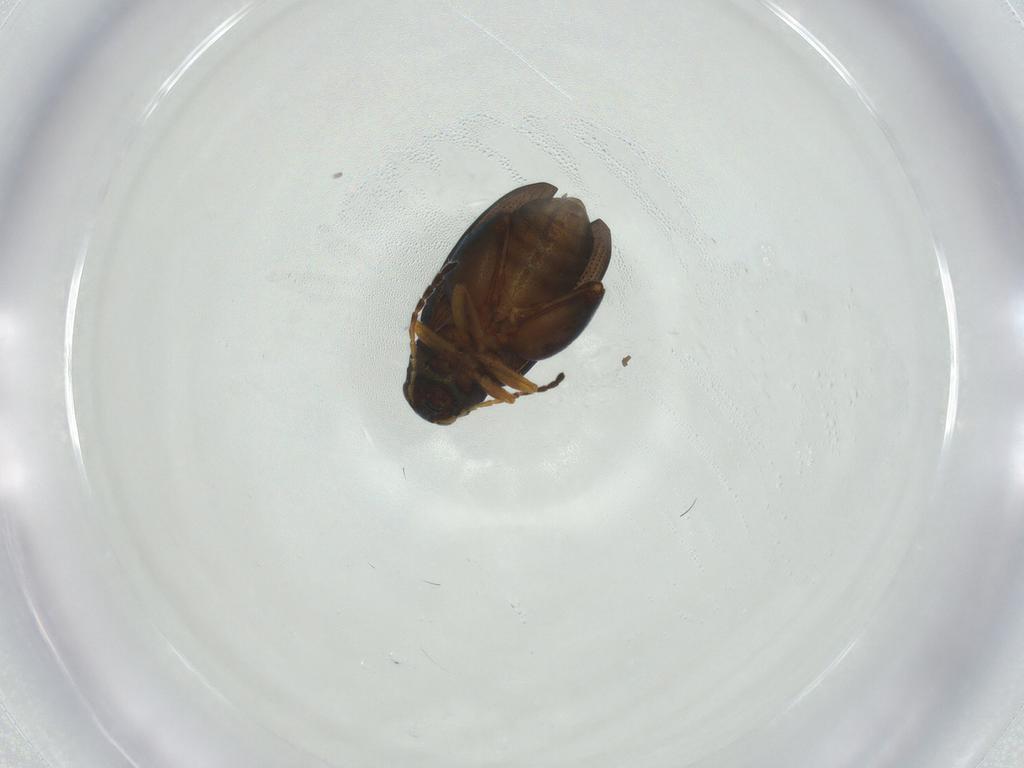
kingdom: Animalia
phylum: Arthropoda
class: Insecta
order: Coleoptera
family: Chrysomelidae
